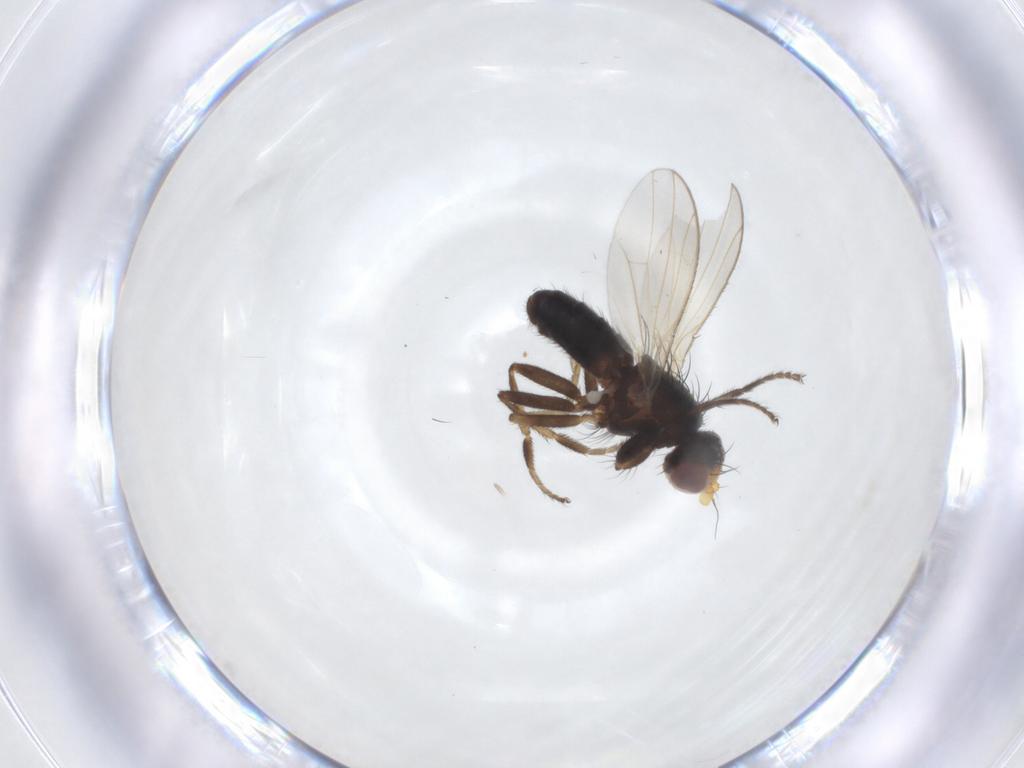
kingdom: Animalia
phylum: Arthropoda
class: Insecta
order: Diptera
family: Heleomyzidae
